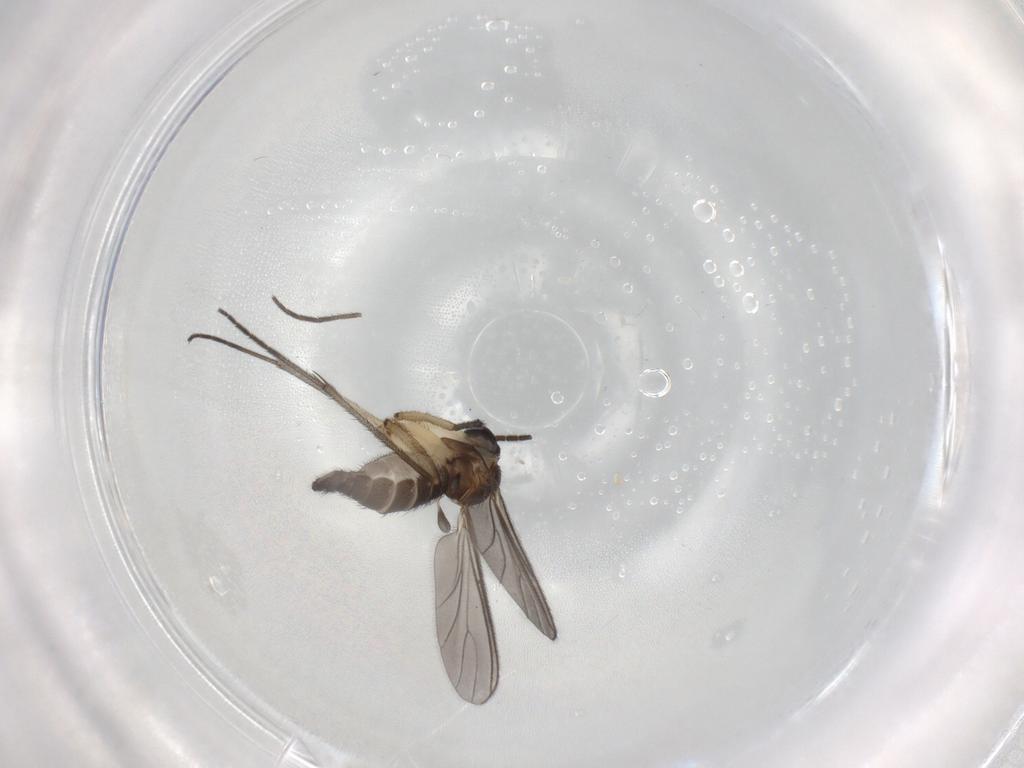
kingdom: Animalia
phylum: Arthropoda
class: Insecta
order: Diptera
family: Sciaridae
